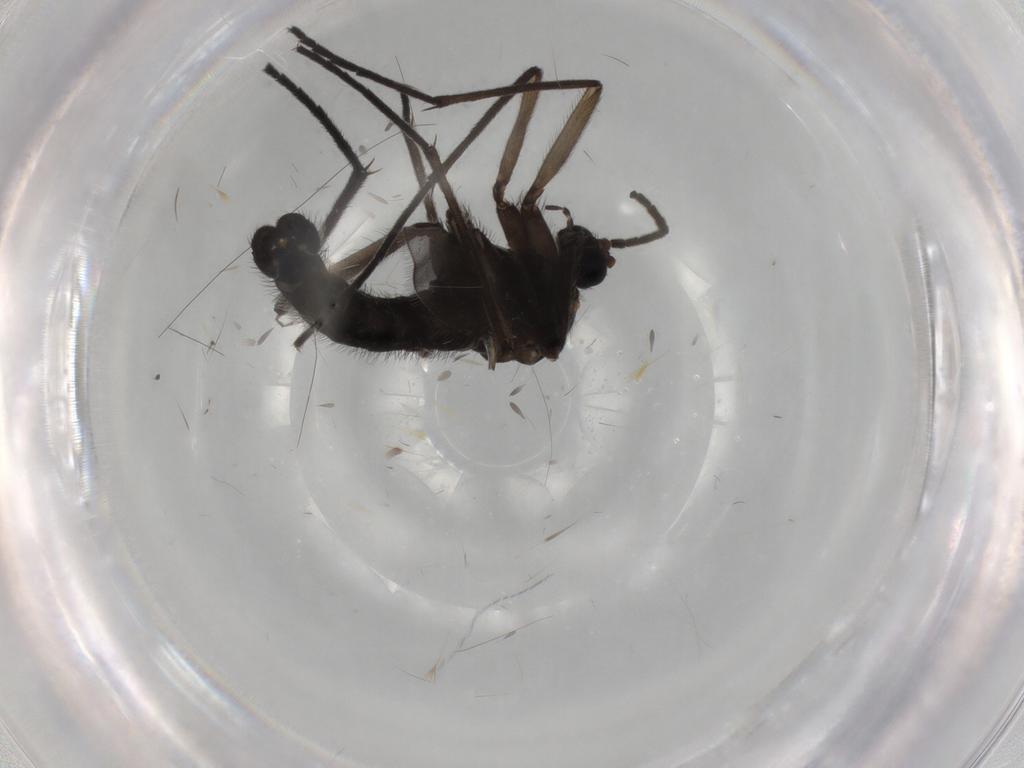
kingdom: Animalia
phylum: Arthropoda
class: Insecta
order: Diptera
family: Sciaridae
